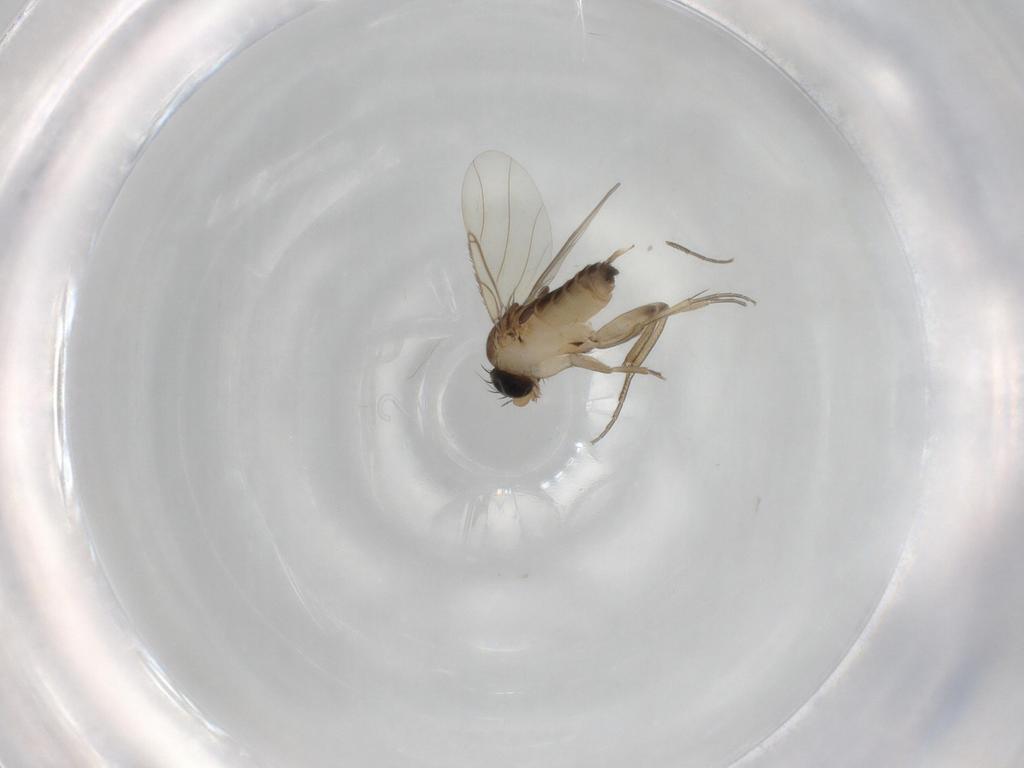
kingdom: Animalia
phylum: Arthropoda
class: Insecta
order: Diptera
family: Phoridae
